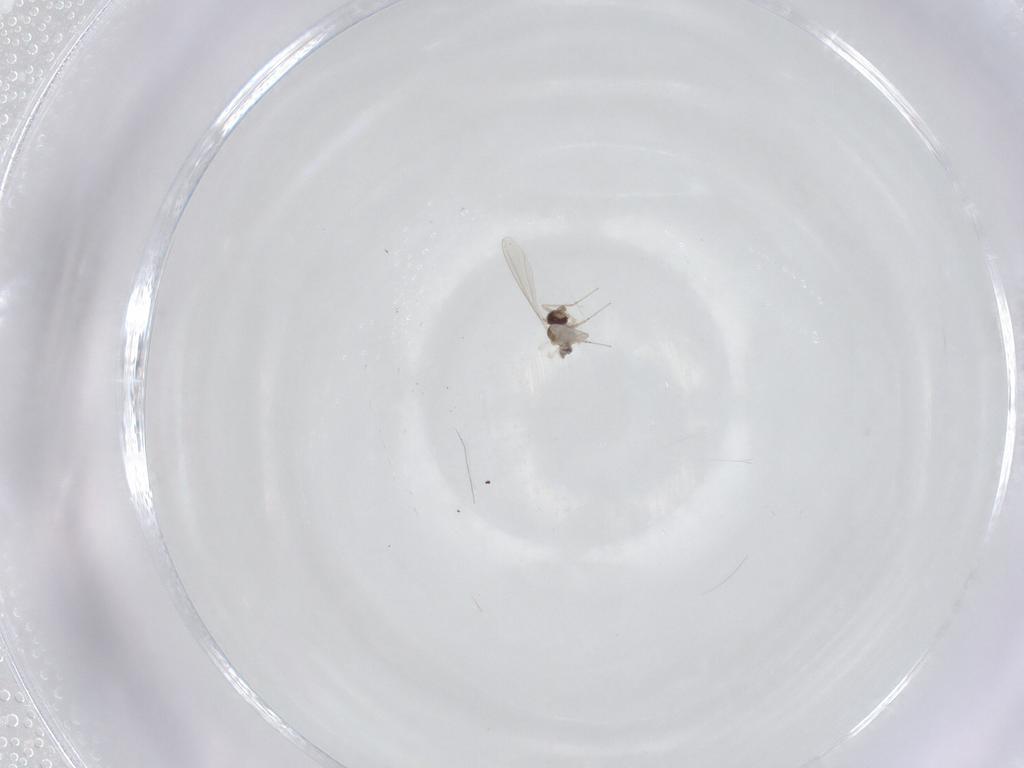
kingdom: Animalia
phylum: Arthropoda
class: Insecta
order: Diptera
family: Cecidomyiidae
